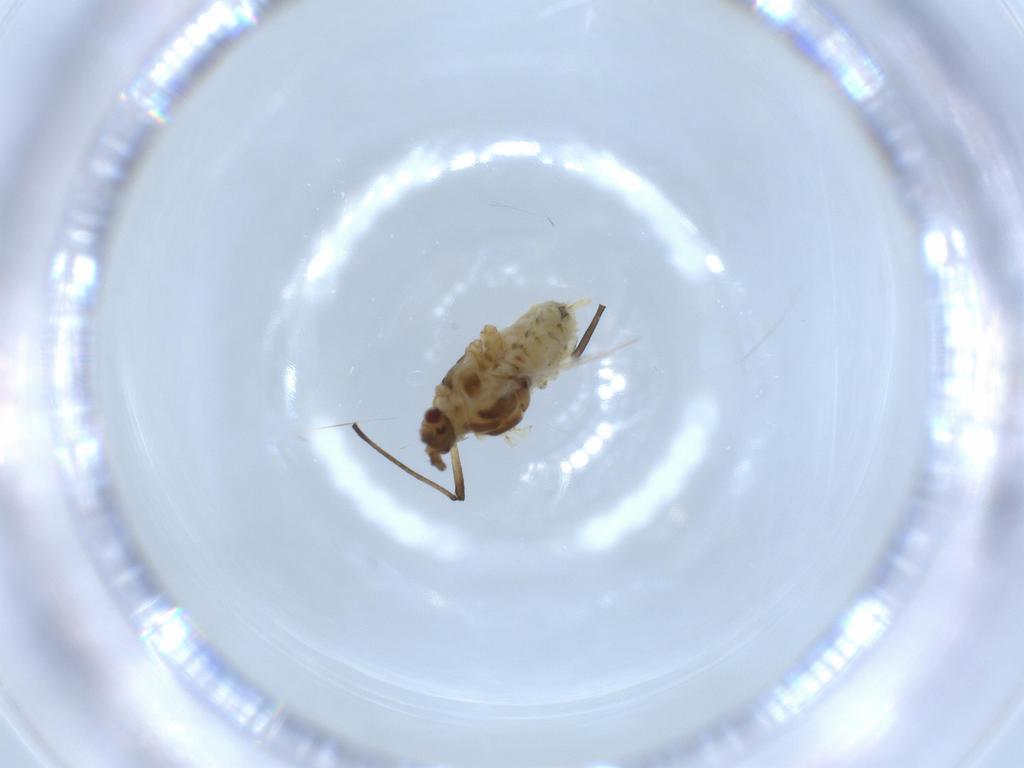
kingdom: Animalia
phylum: Arthropoda
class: Insecta
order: Hemiptera
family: Aphididae
